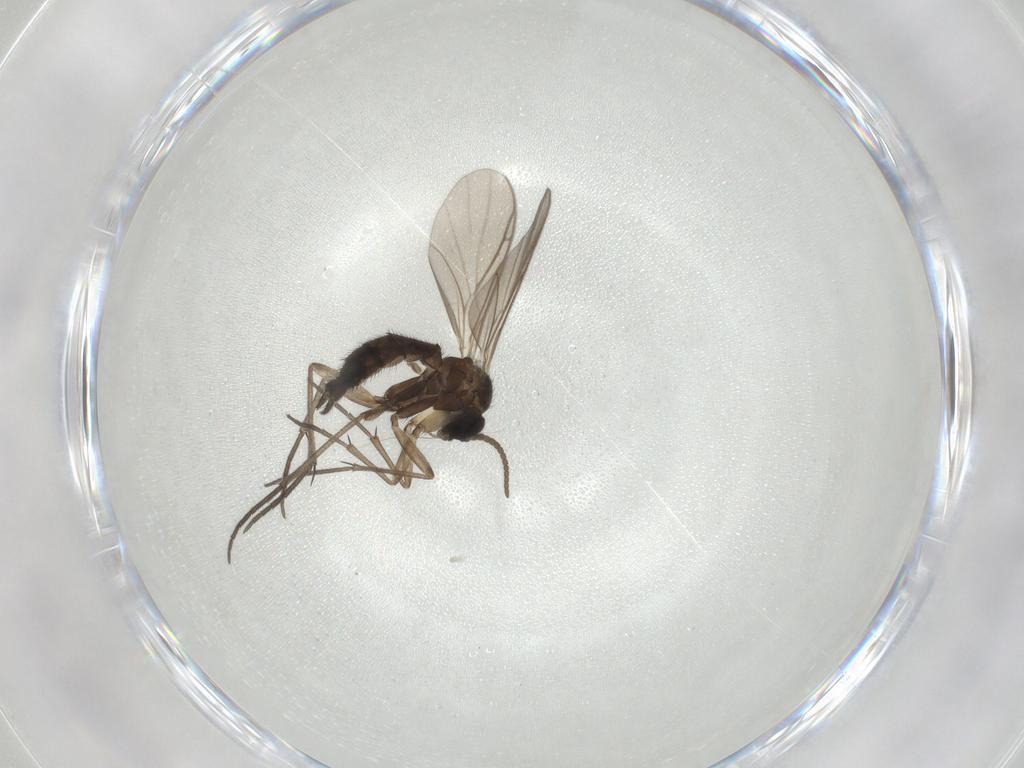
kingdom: Animalia
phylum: Arthropoda
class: Insecta
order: Diptera
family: Keroplatidae
